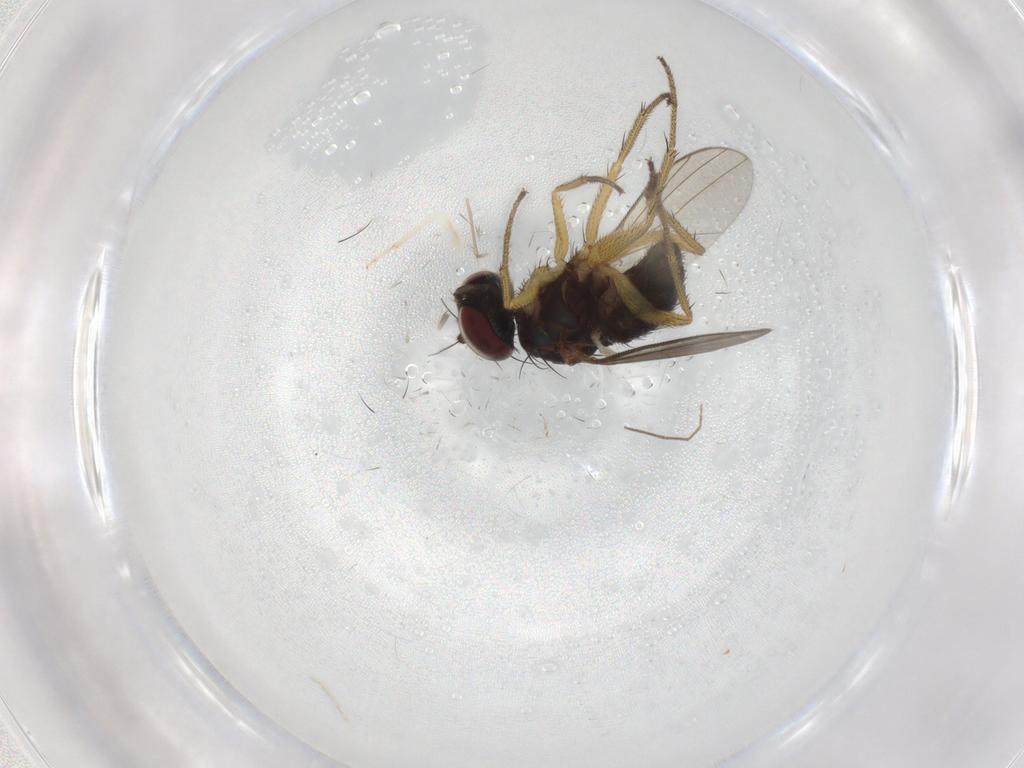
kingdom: Animalia
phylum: Arthropoda
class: Insecta
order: Diptera
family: Dolichopodidae
